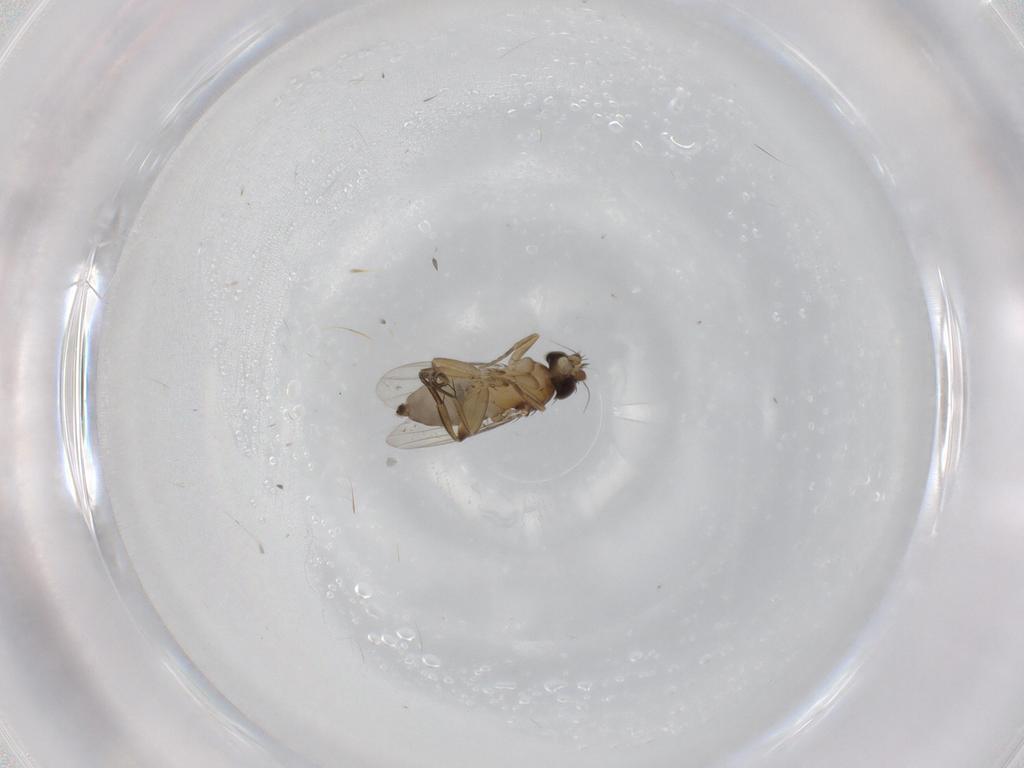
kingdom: Animalia
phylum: Arthropoda
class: Insecta
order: Diptera
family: Phoridae
